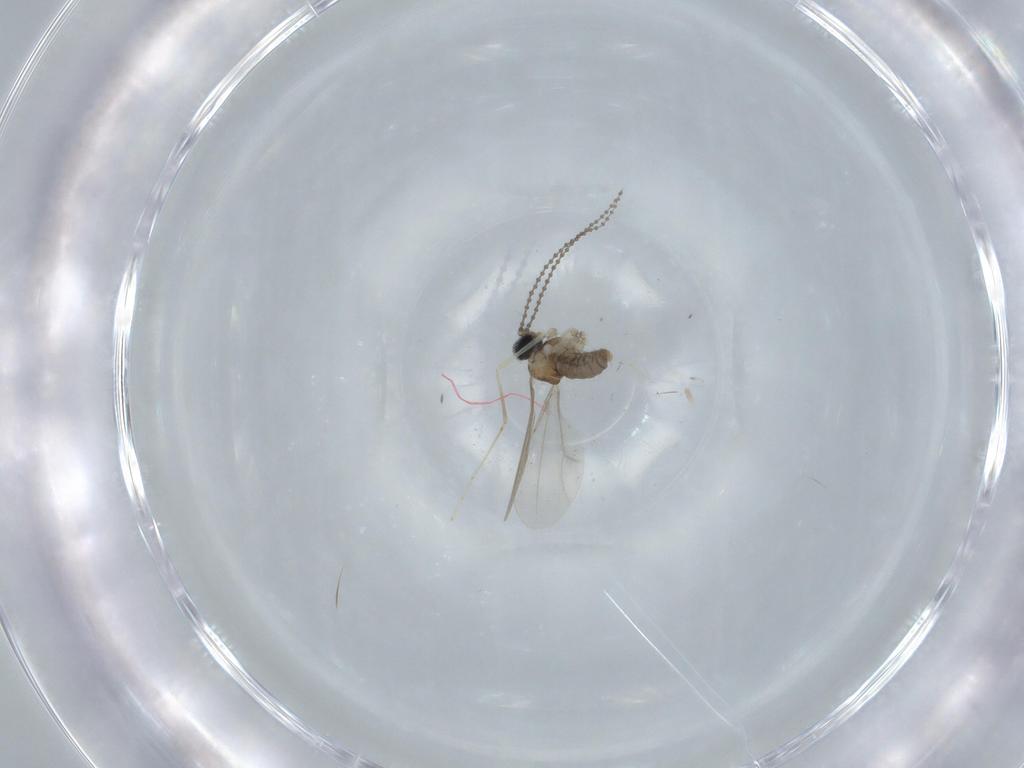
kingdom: Animalia
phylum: Arthropoda
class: Insecta
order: Diptera
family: Cecidomyiidae
